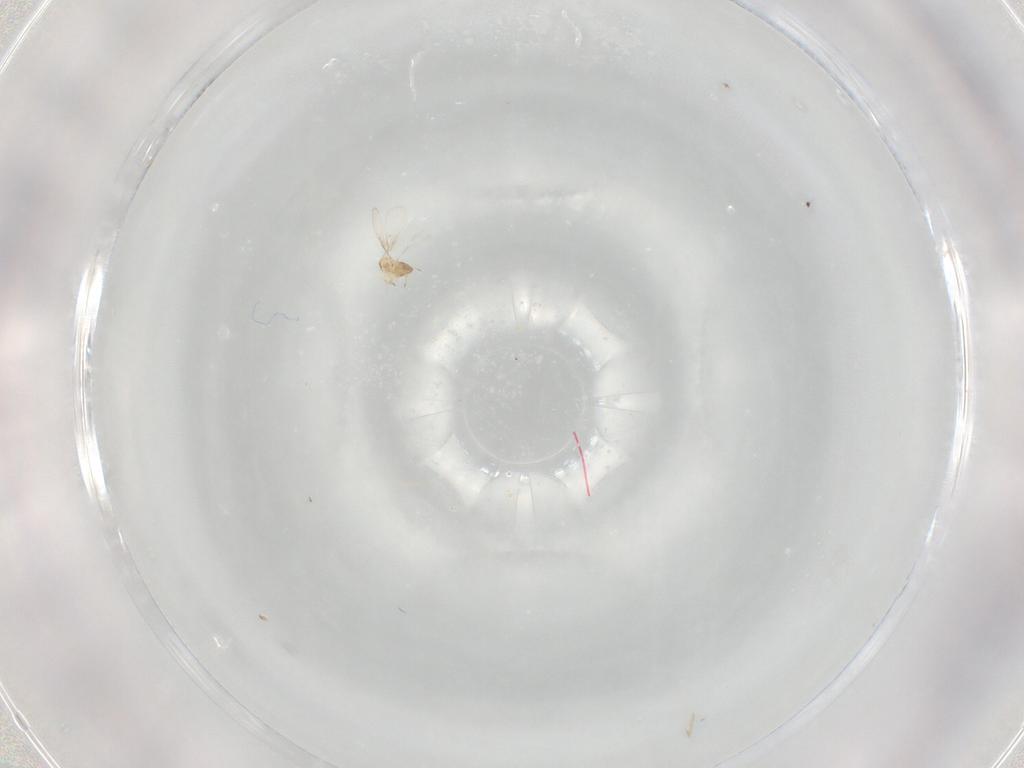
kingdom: Animalia
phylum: Arthropoda
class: Insecta
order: Hymenoptera
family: Trichogrammatidae
